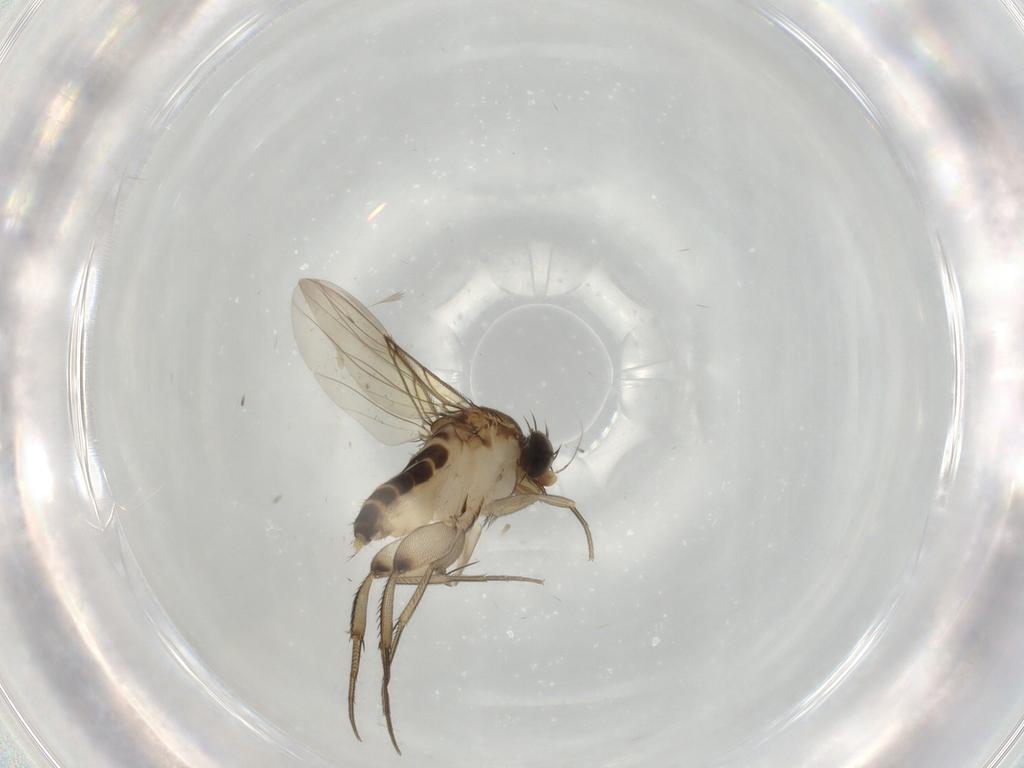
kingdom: Animalia
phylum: Arthropoda
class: Insecta
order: Diptera
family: Phoridae
